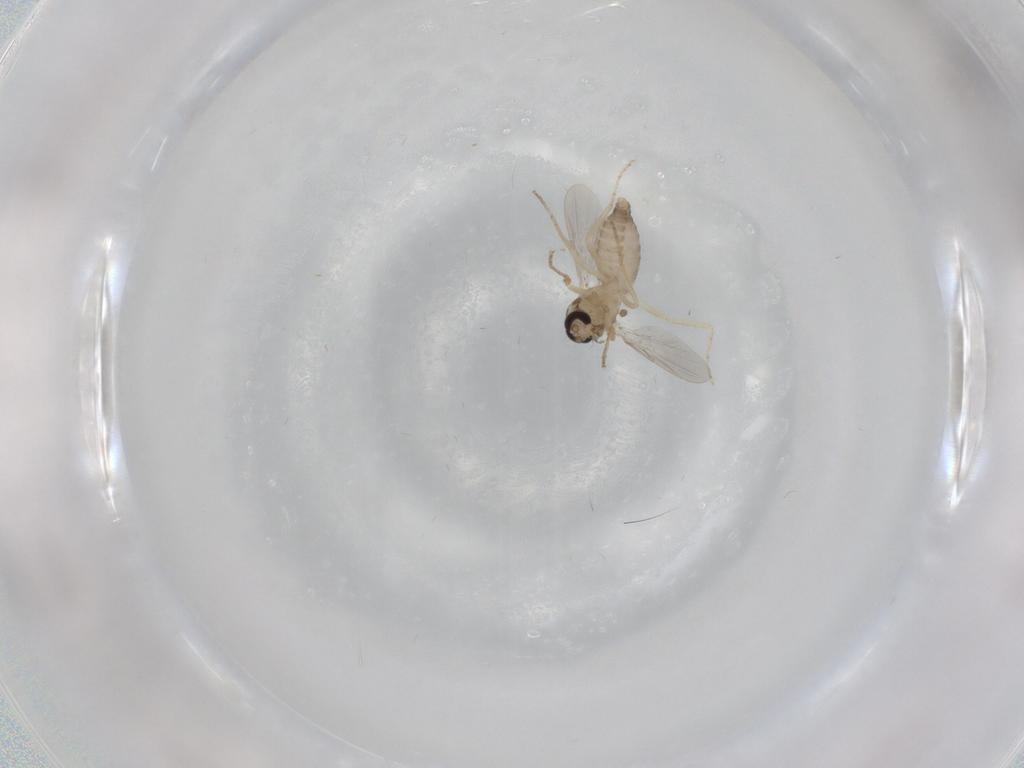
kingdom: Animalia
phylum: Arthropoda
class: Insecta
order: Diptera
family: Ceratopogonidae
